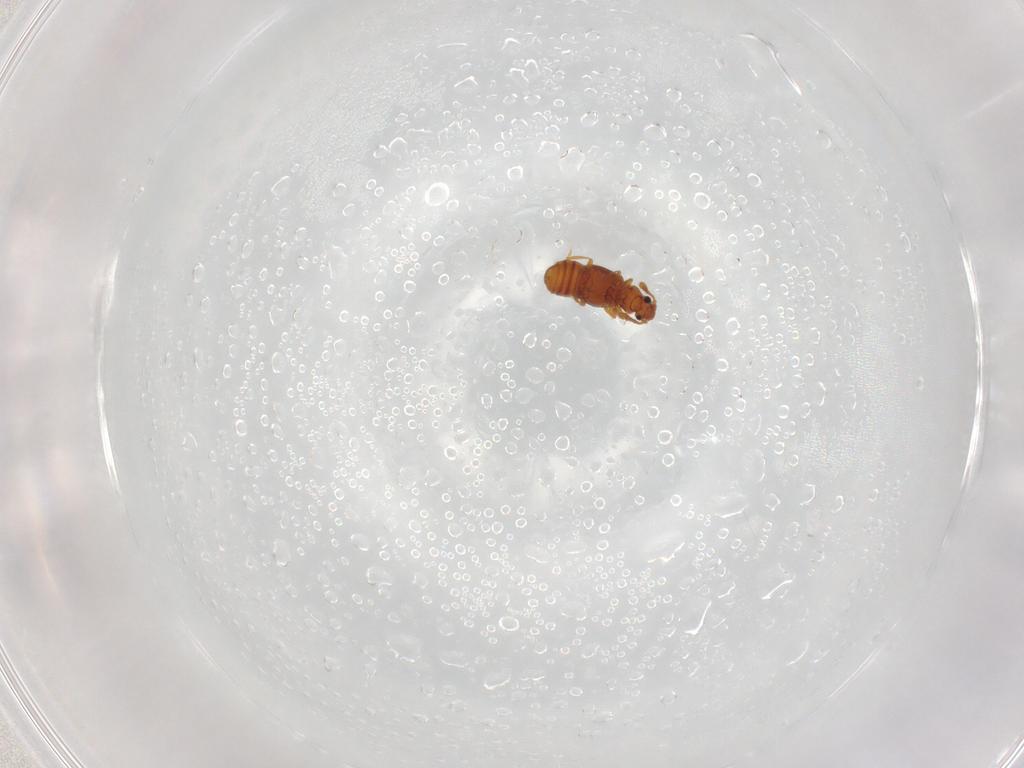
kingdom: Animalia
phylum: Arthropoda
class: Insecta
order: Coleoptera
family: Staphylinidae
